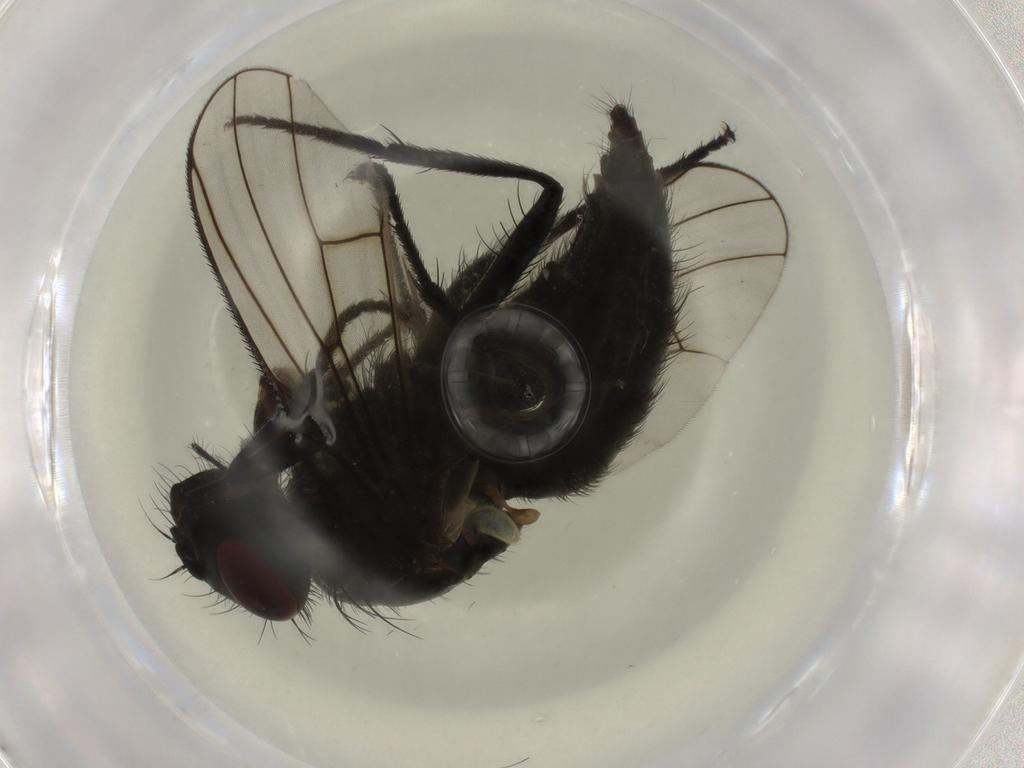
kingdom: Animalia
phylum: Arthropoda
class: Insecta
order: Diptera
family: Muscidae
